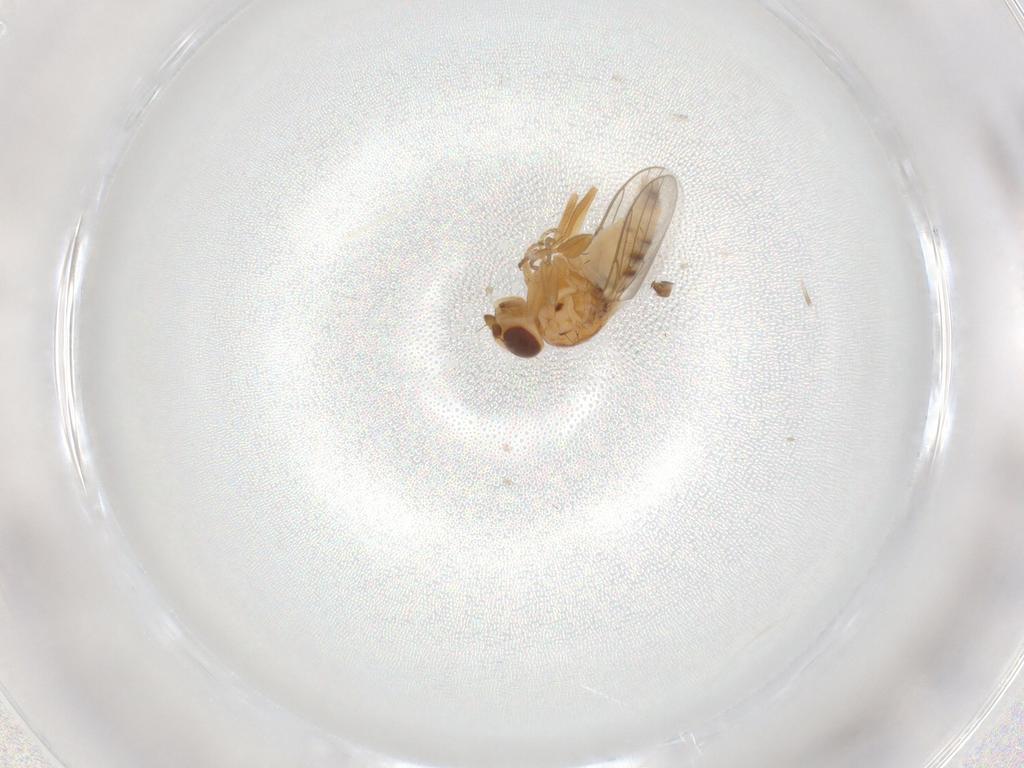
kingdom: Animalia
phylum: Arthropoda
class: Insecta
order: Diptera
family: Chloropidae
